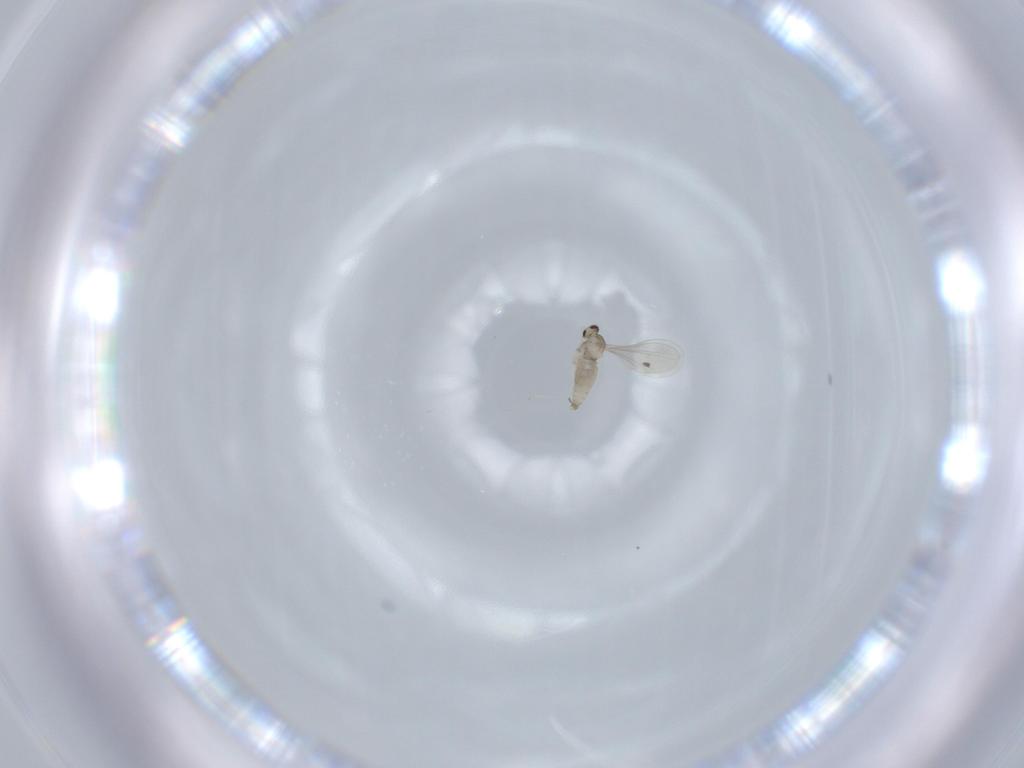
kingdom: Animalia
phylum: Arthropoda
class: Insecta
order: Diptera
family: Cecidomyiidae
